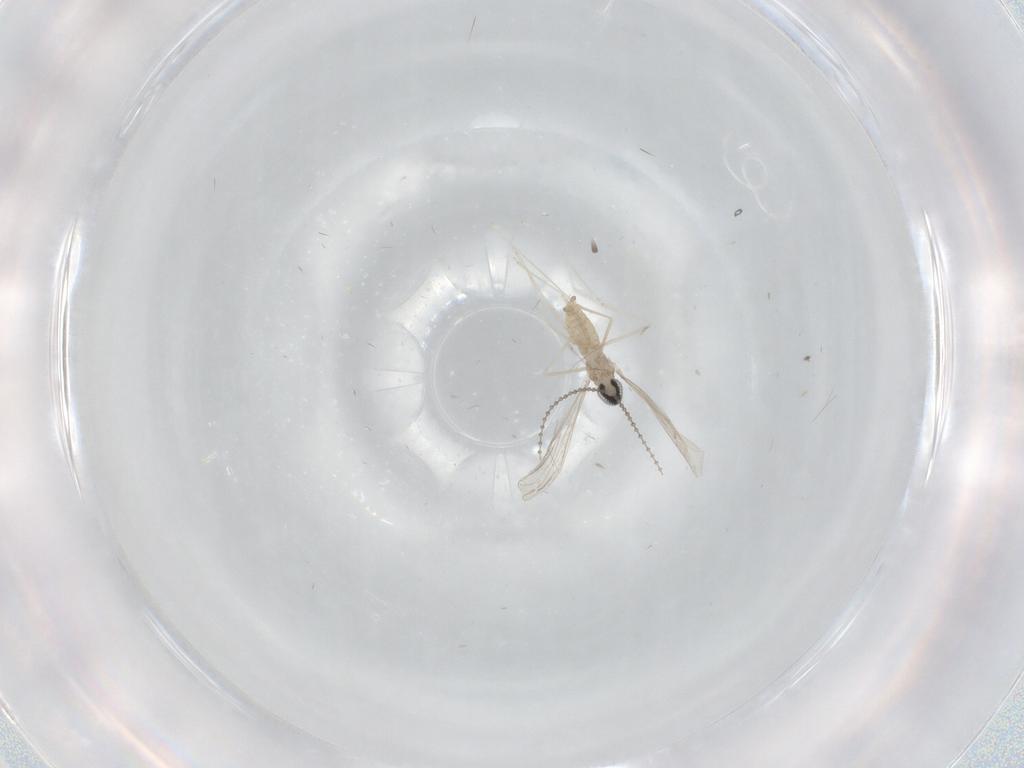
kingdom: Animalia
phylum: Arthropoda
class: Insecta
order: Diptera
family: Cecidomyiidae
